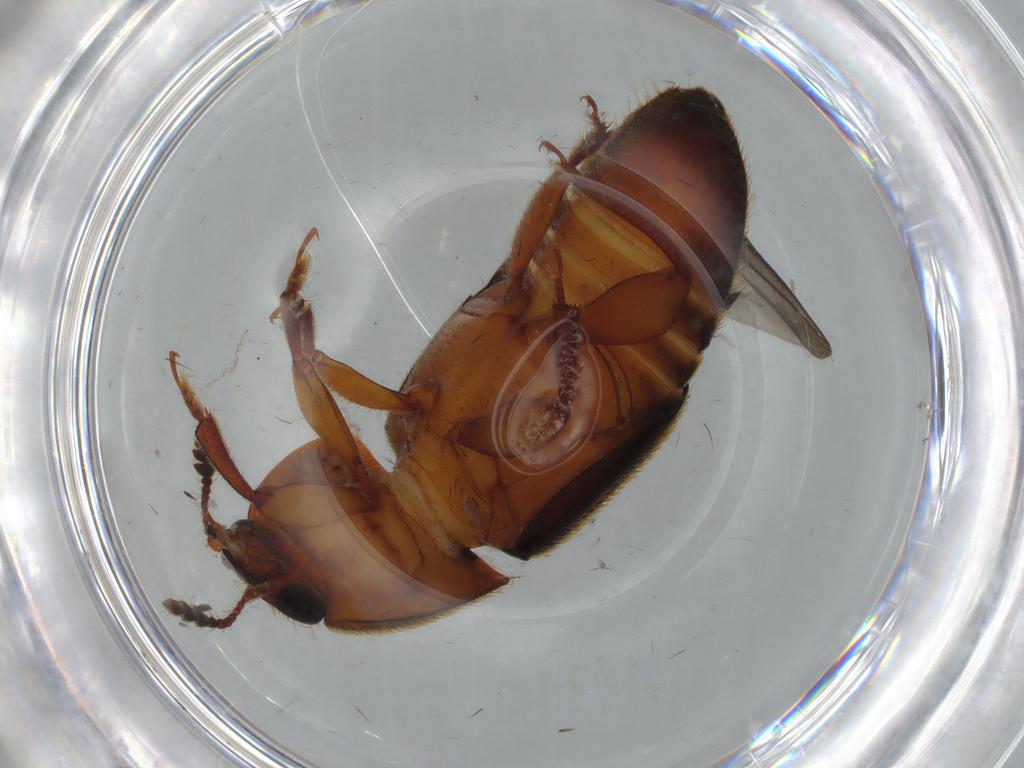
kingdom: Animalia
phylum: Arthropoda
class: Insecta
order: Coleoptera
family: Nitidulidae
